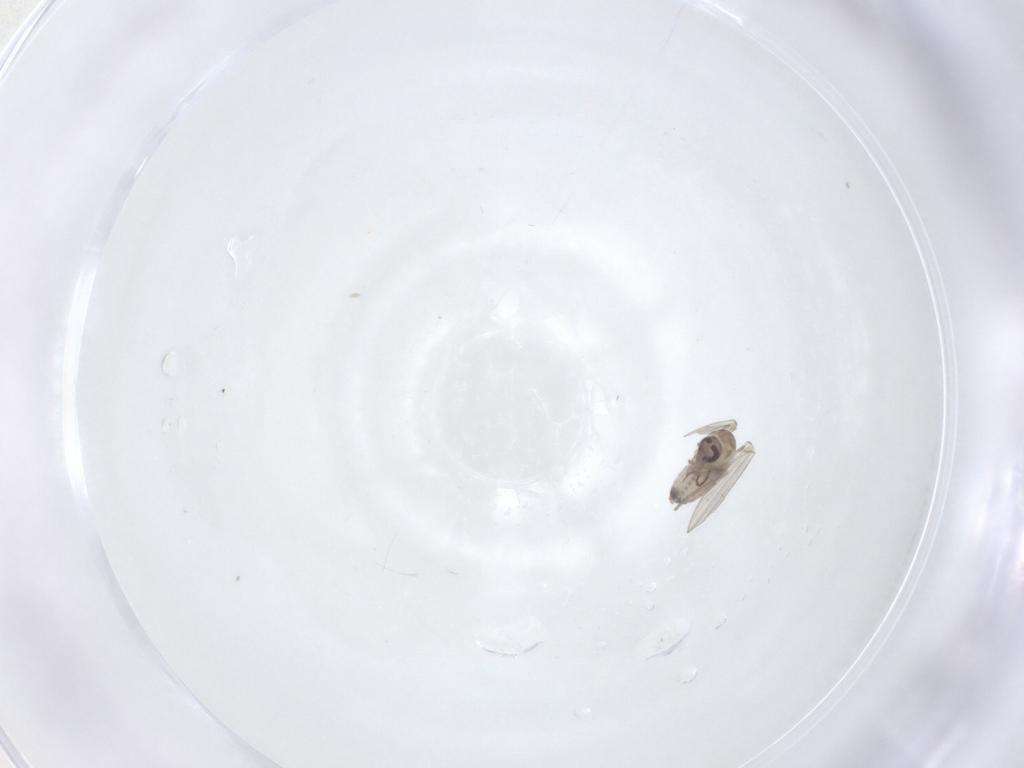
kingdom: Animalia
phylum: Arthropoda
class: Insecta
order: Diptera
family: Psychodidae
